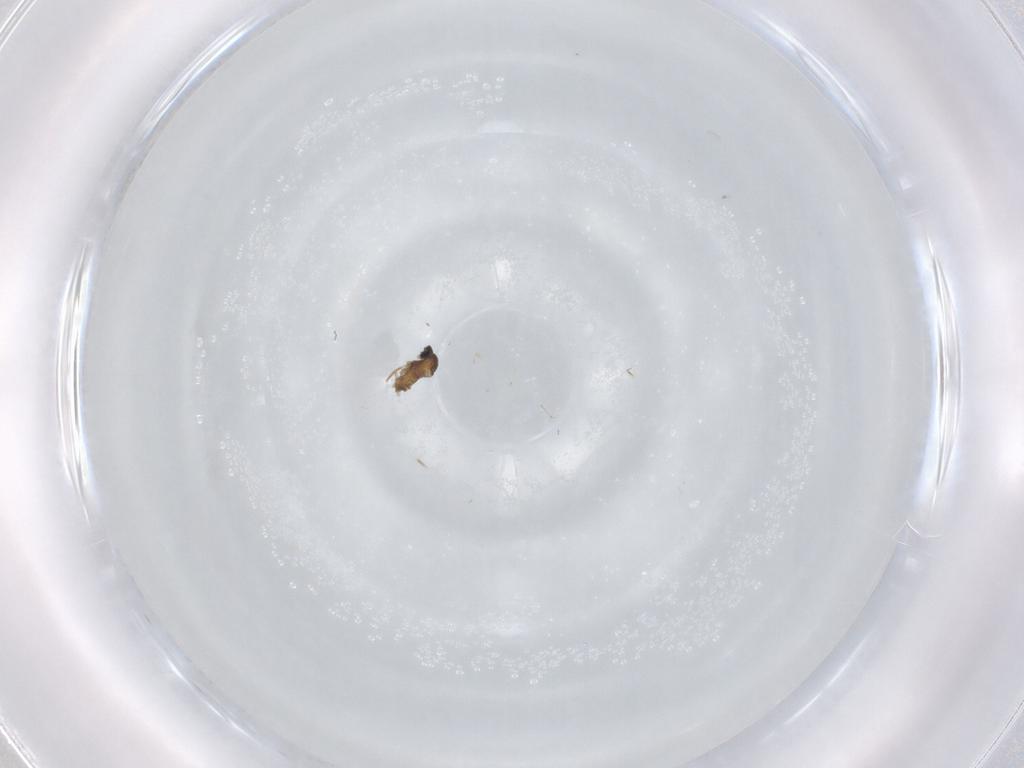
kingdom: Animalia
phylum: Arthropoda
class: Insecta
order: Diptera
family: Cecidomyiidae
